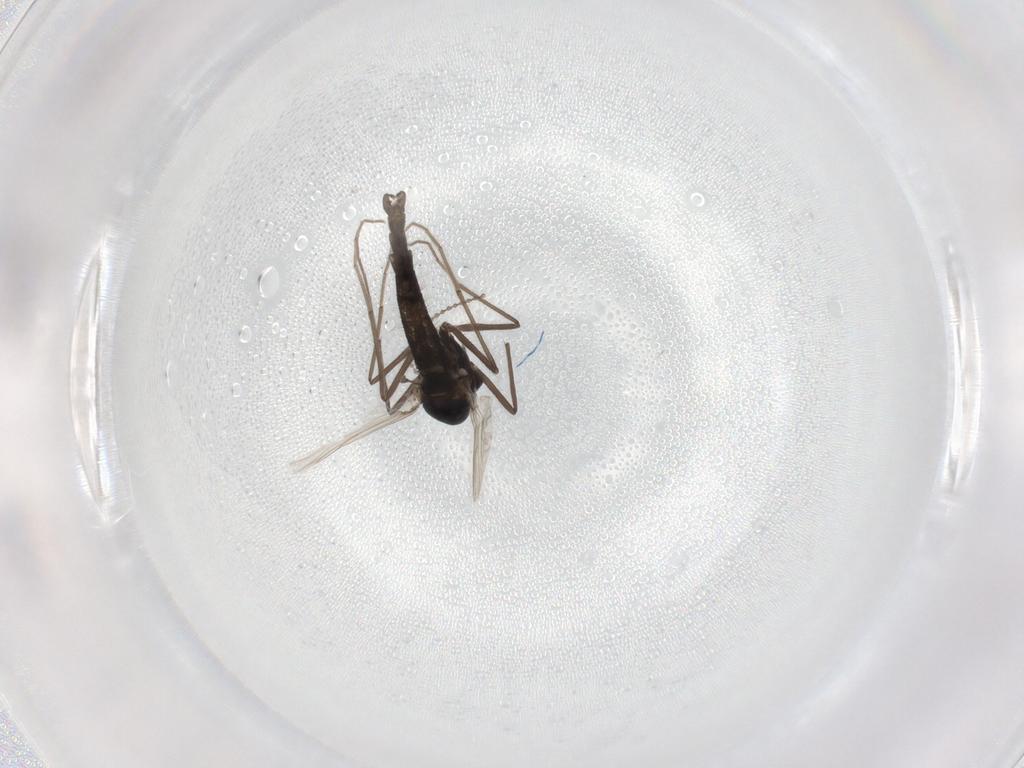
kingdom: Animalia
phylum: Arthropoda
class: Insecta
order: Diptera
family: Chironomidae
